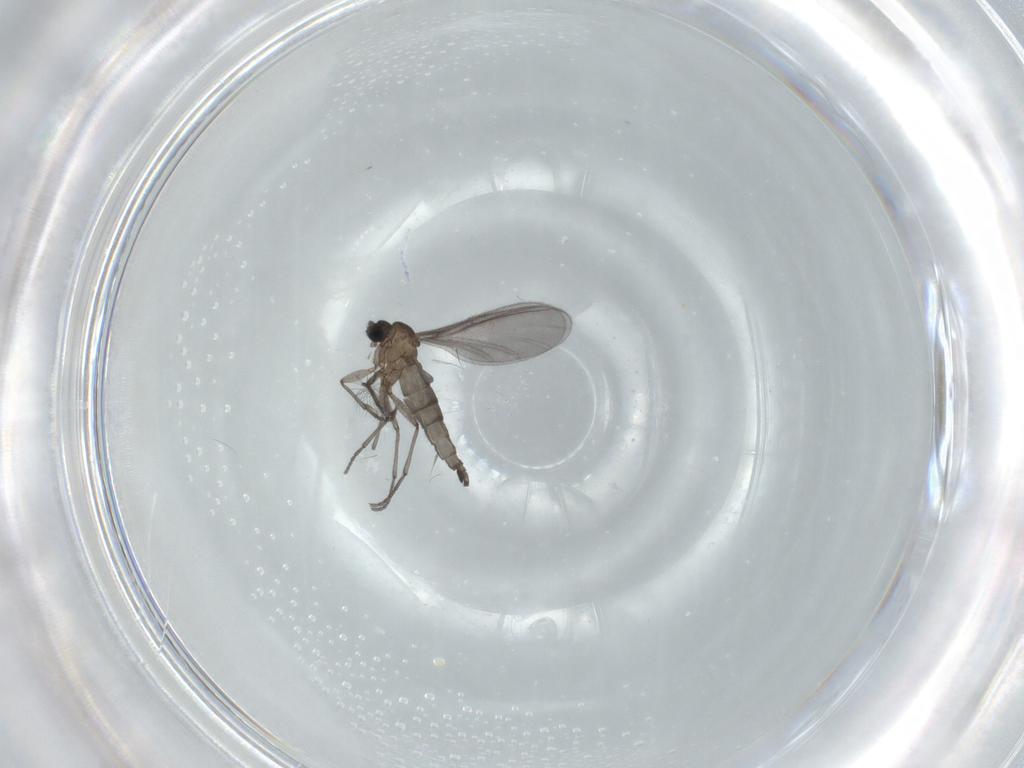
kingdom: Animalia
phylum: Arthropoda
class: Insecta
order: Diptera
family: Sciaridae
